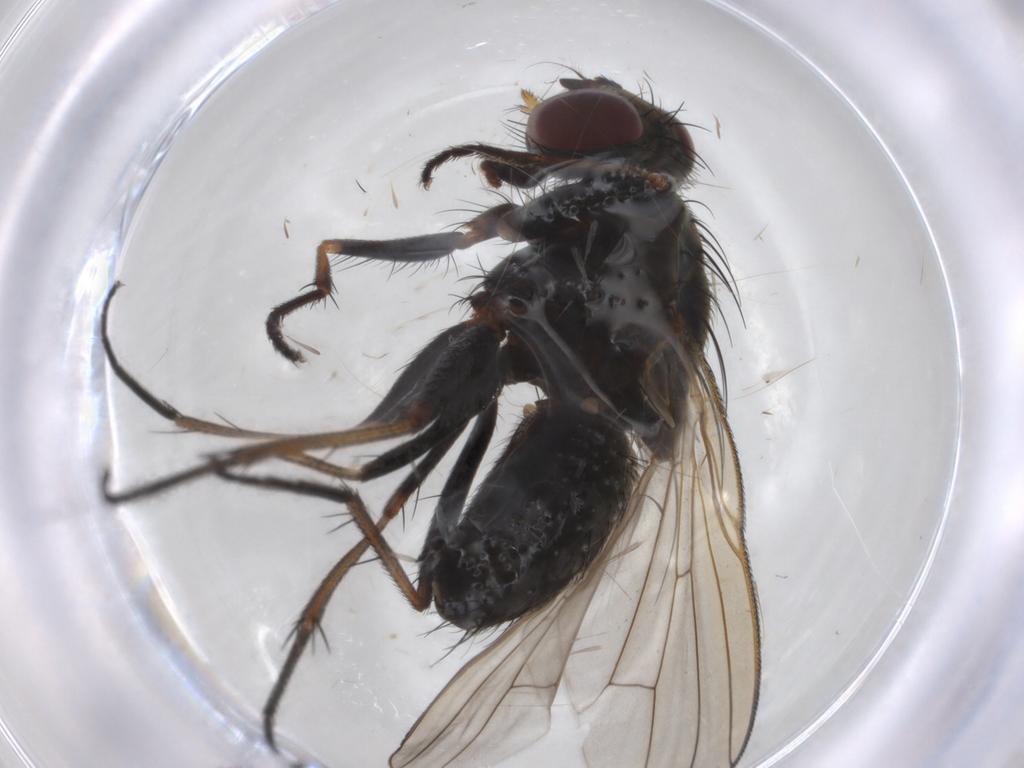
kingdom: Animalia
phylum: Arthropoda
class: Insecta
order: Diptera
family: Muscidae
